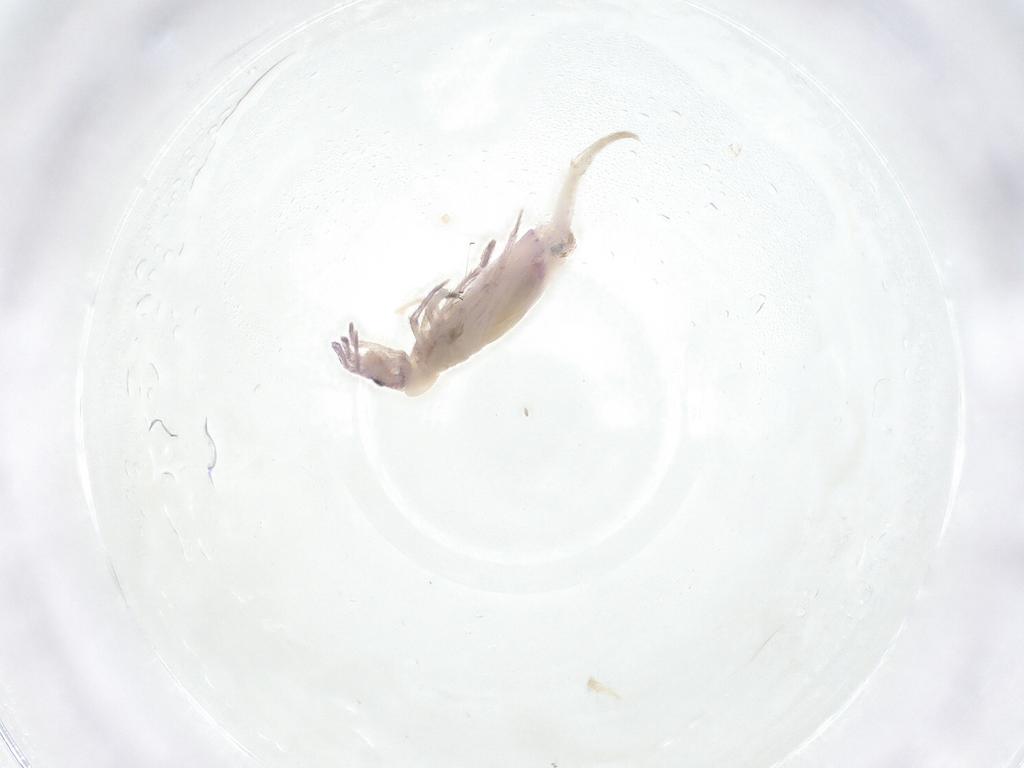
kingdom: Animalia
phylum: Arthropoda
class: Collembola
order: Entomobryomorpha
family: Entomobryidae
